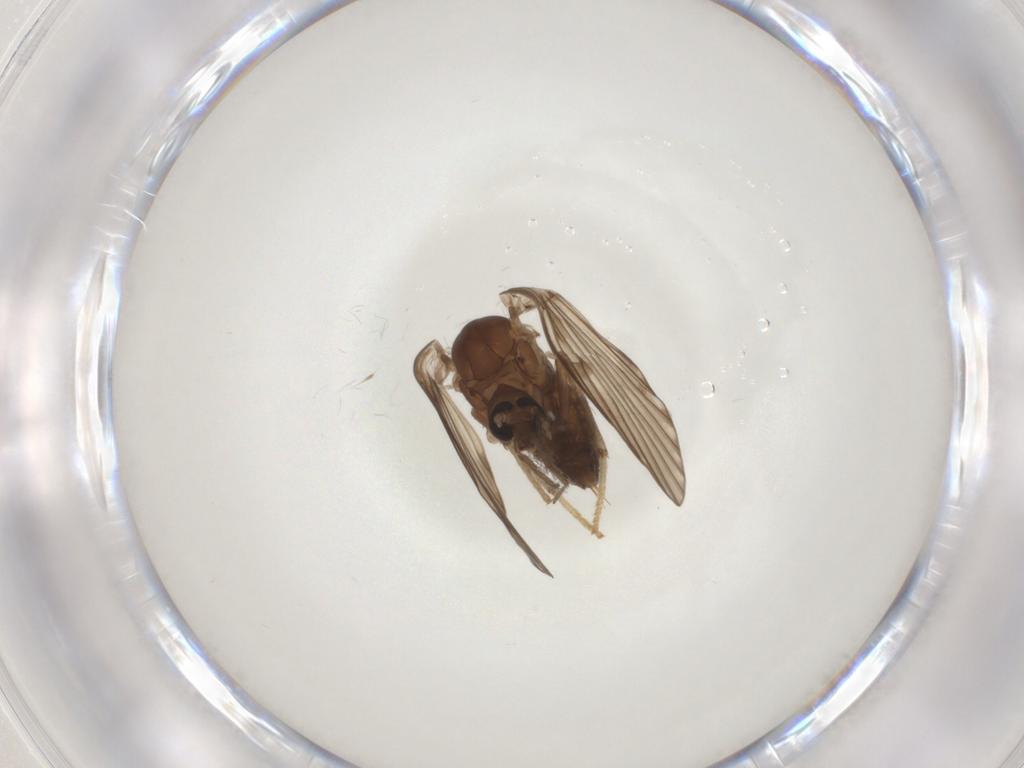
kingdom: Animalia
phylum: Arthropoda
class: Insecta
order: Diptera
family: Psychodidae
